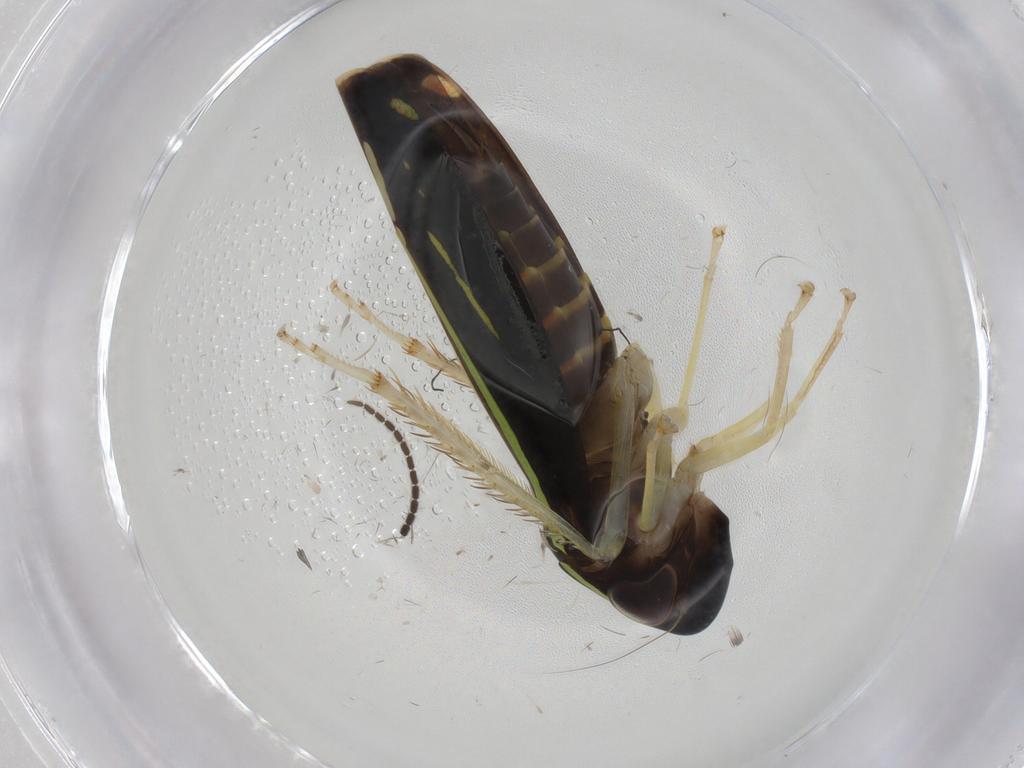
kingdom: Animalia
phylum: Arthropoda
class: Insecta
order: Hemiptera
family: Cicadellidae
